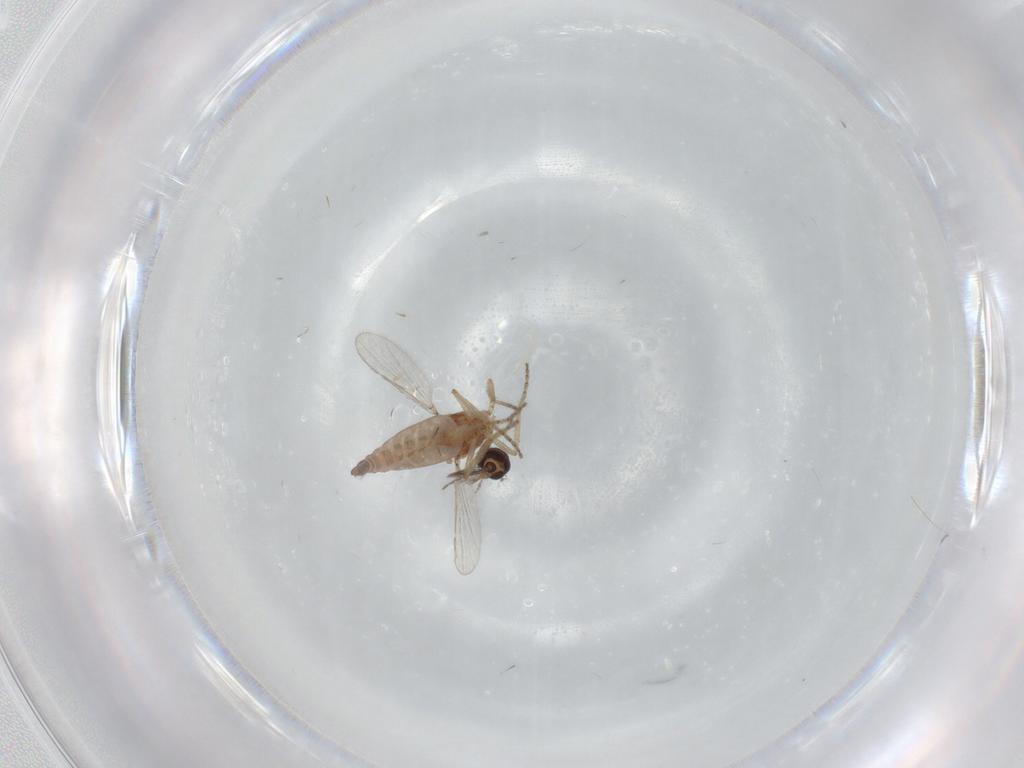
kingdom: Animalia
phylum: Arthropoda
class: Insecta
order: Diptera
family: Ceratopogonidae
